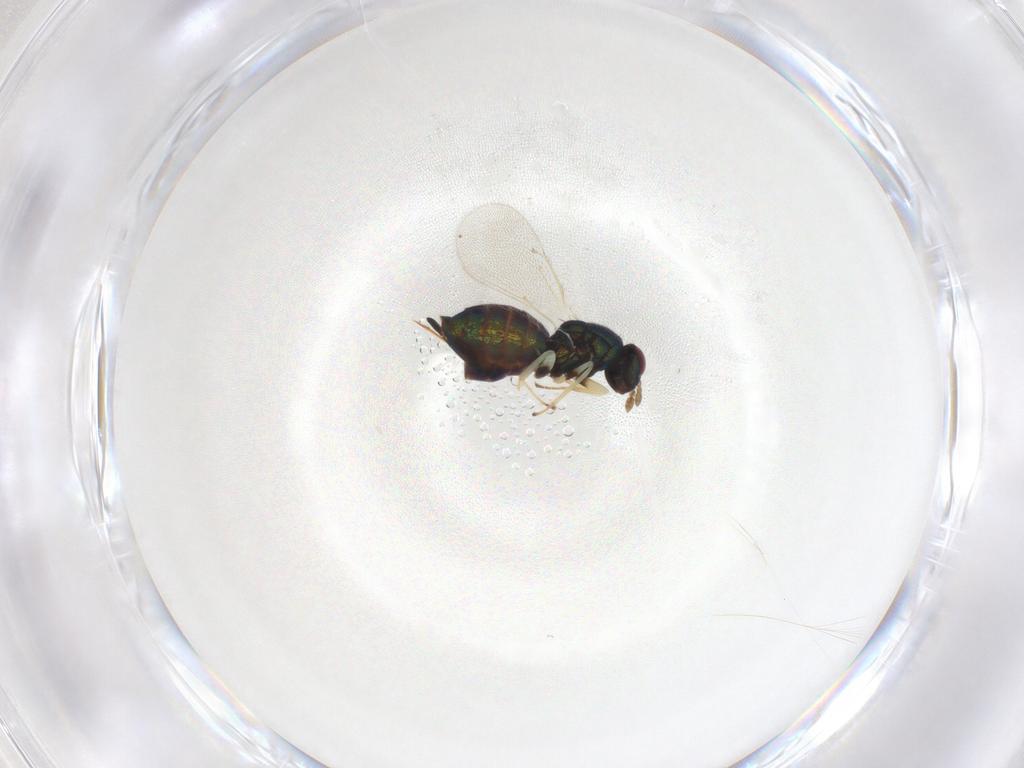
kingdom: Animalia
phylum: Arthropoda
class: Insecta
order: Hymenoptera
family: Eulophidae
